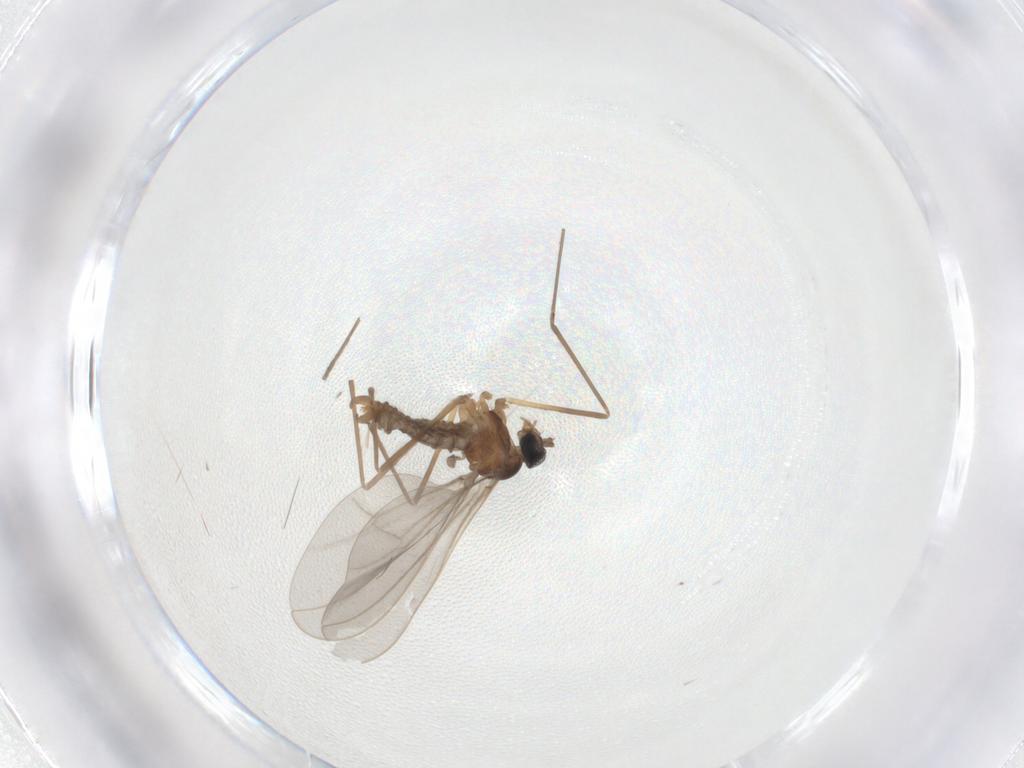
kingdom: Animalia
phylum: Arthropoda
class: Insecta
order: Diptera
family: Cecidomyiidae
